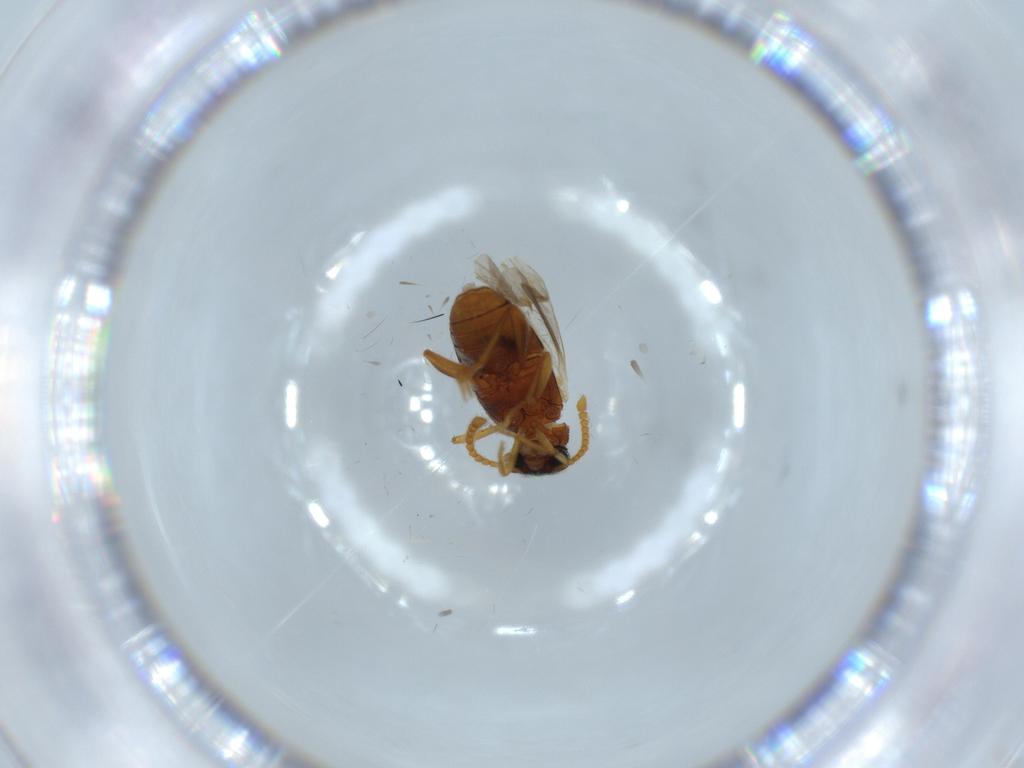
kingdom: Animalia
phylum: Arthropoda
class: Insecta
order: Coleoptera
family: Aderidae
